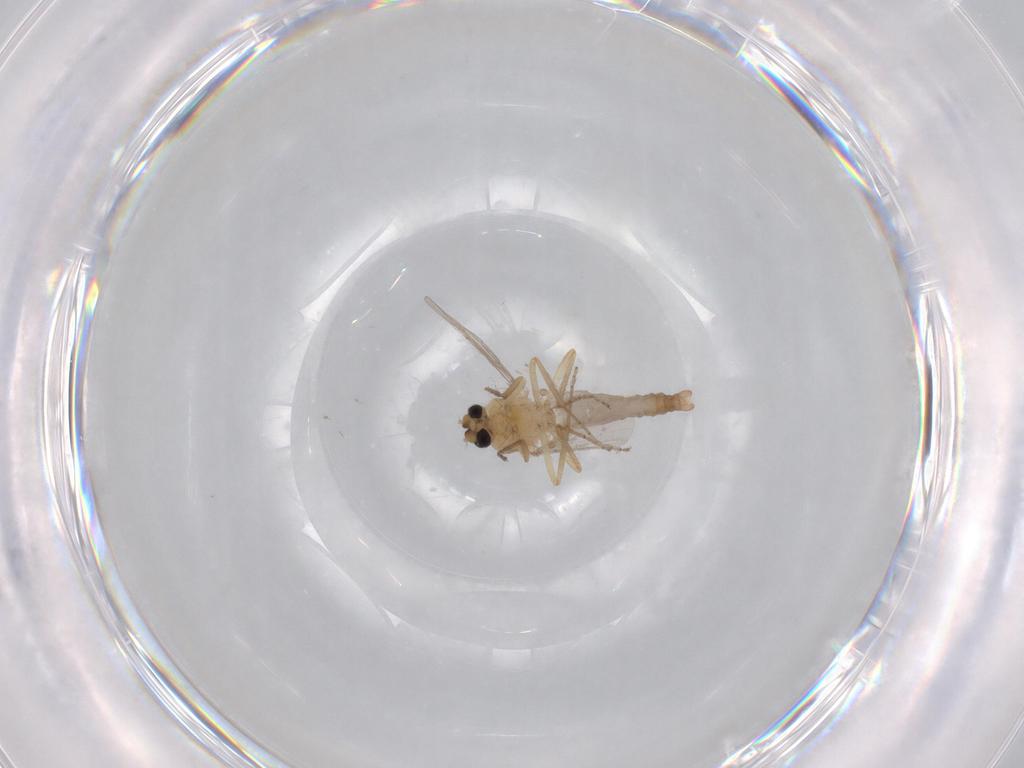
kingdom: Animalia
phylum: Arthropoda
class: Insecta
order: Diptera
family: Ceratopogonidae
